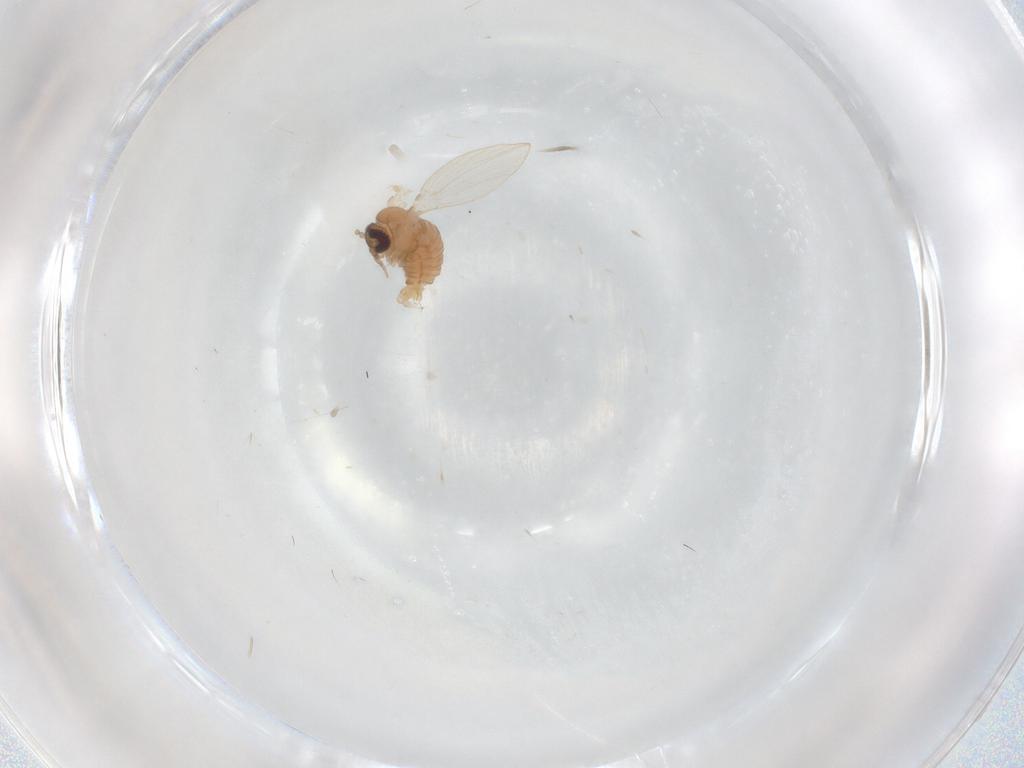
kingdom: Animalia
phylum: Arthropoda
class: Insecta
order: Diptera
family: Psychodidae
